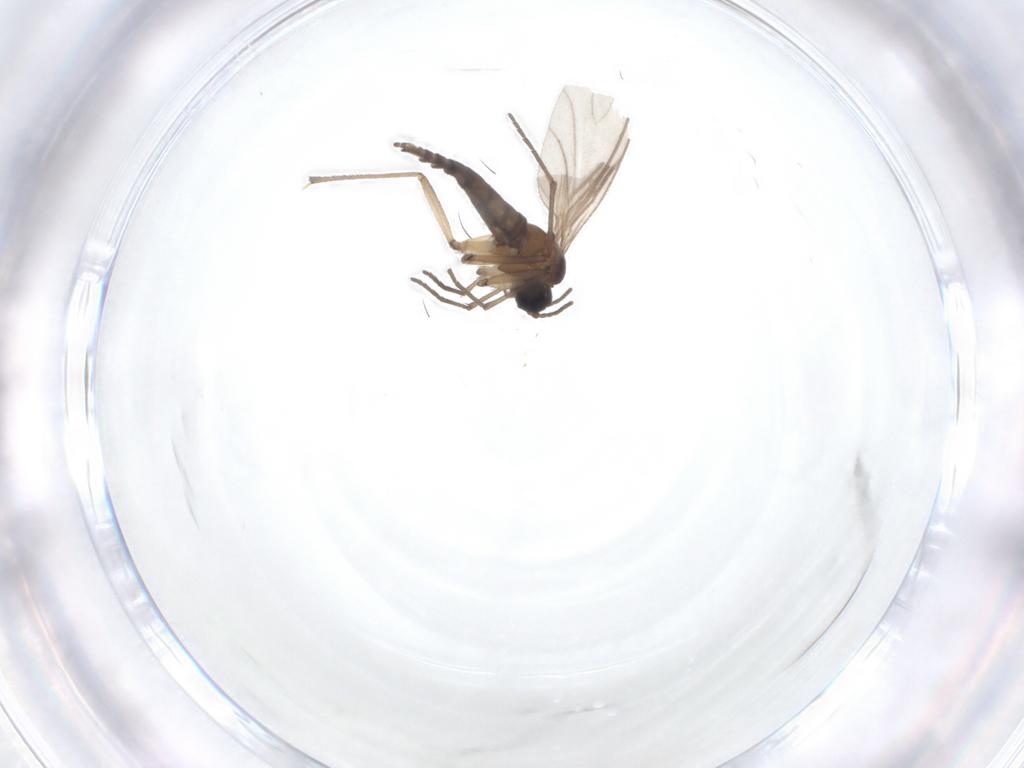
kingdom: Animalia
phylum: Arthropoda
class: Insecta
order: Diptera
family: Sciaridae
